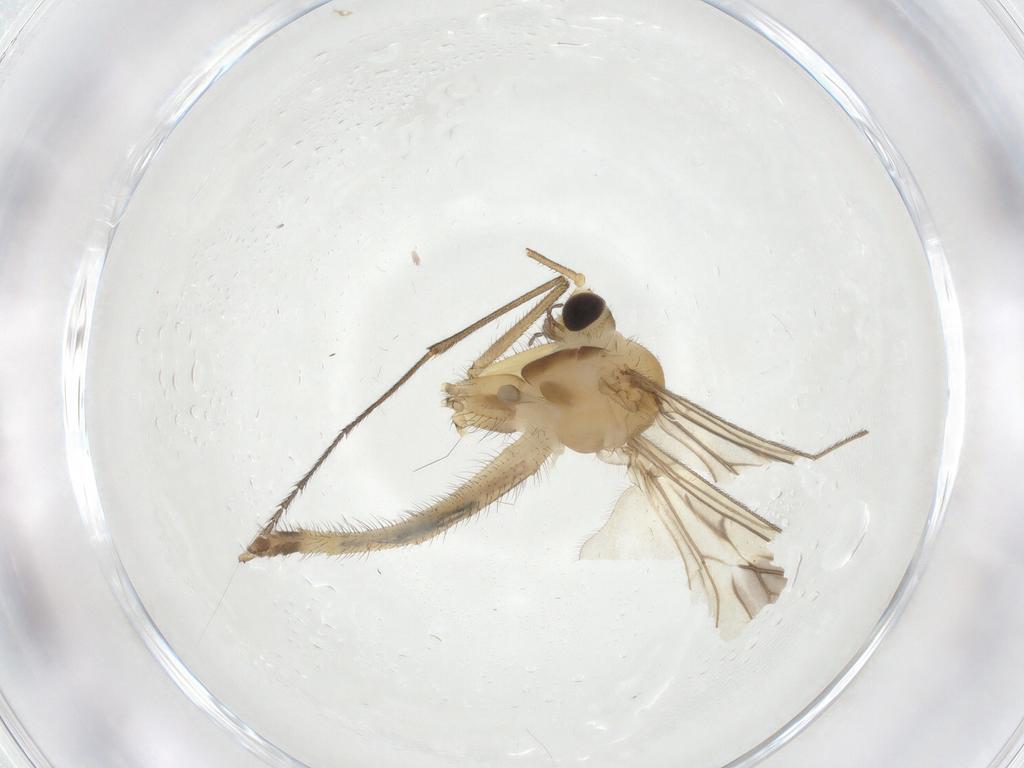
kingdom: Animalia
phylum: Arthropoda
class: Insecta
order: Diptera
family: Keroplatidae
